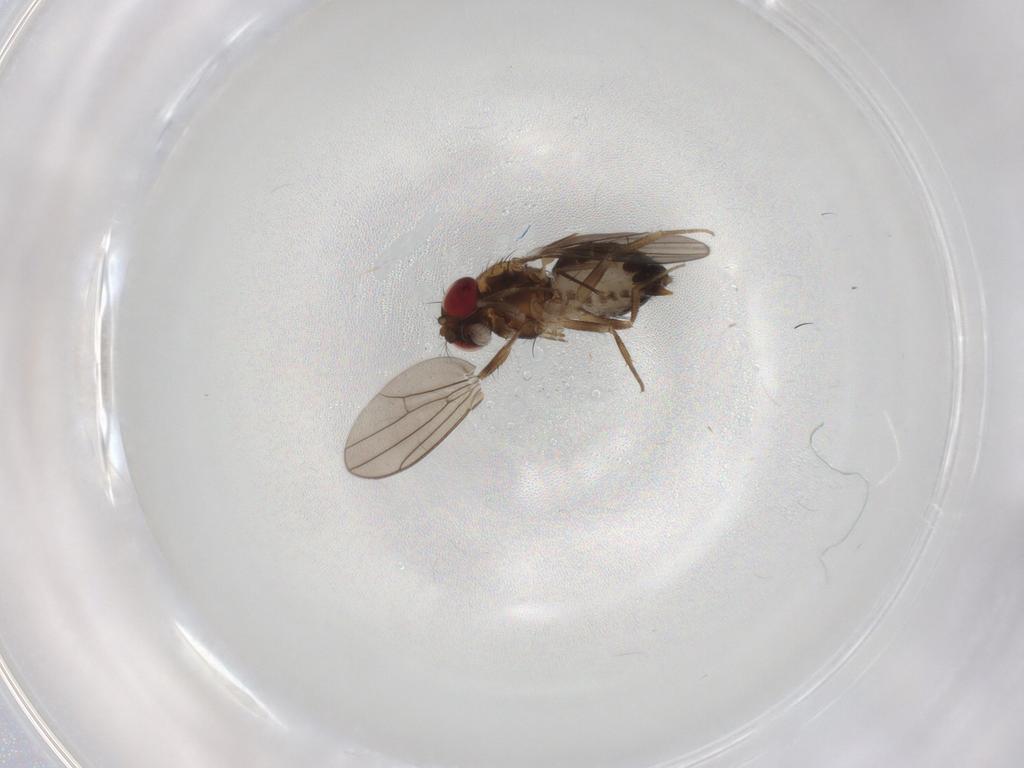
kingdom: Animalia
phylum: Arthropoda
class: Insecta
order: Diptera
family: Drosophilidae
